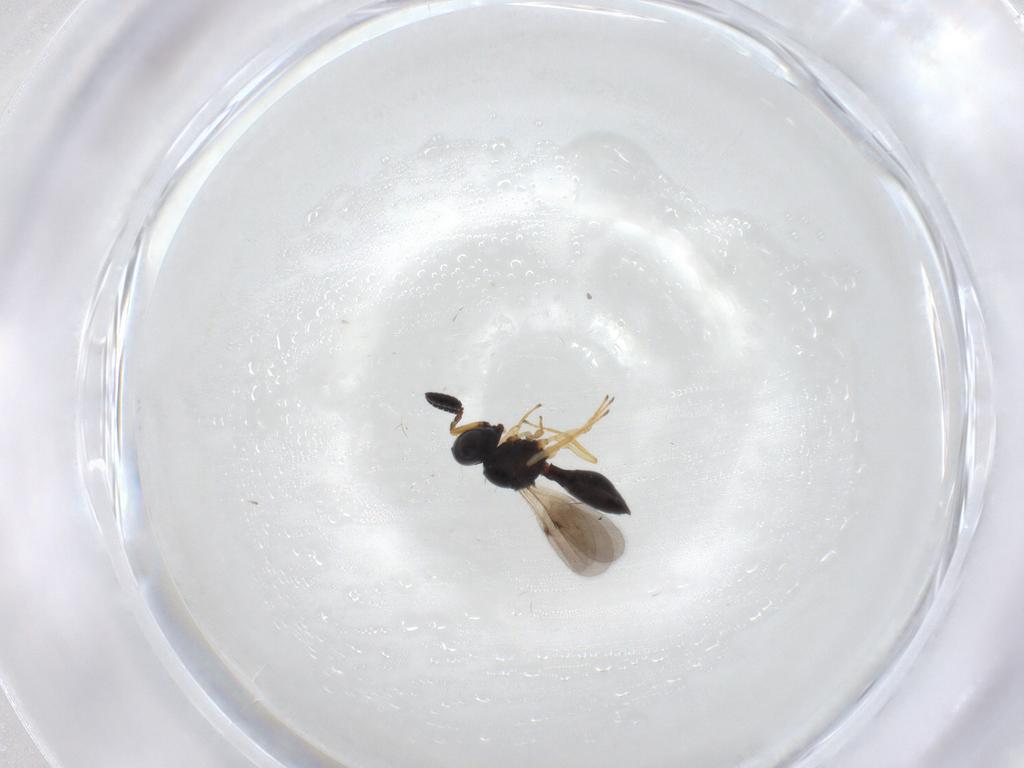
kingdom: Animalia
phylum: Arthropoda
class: Insecta
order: Hymenoptera
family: Scelionidae
